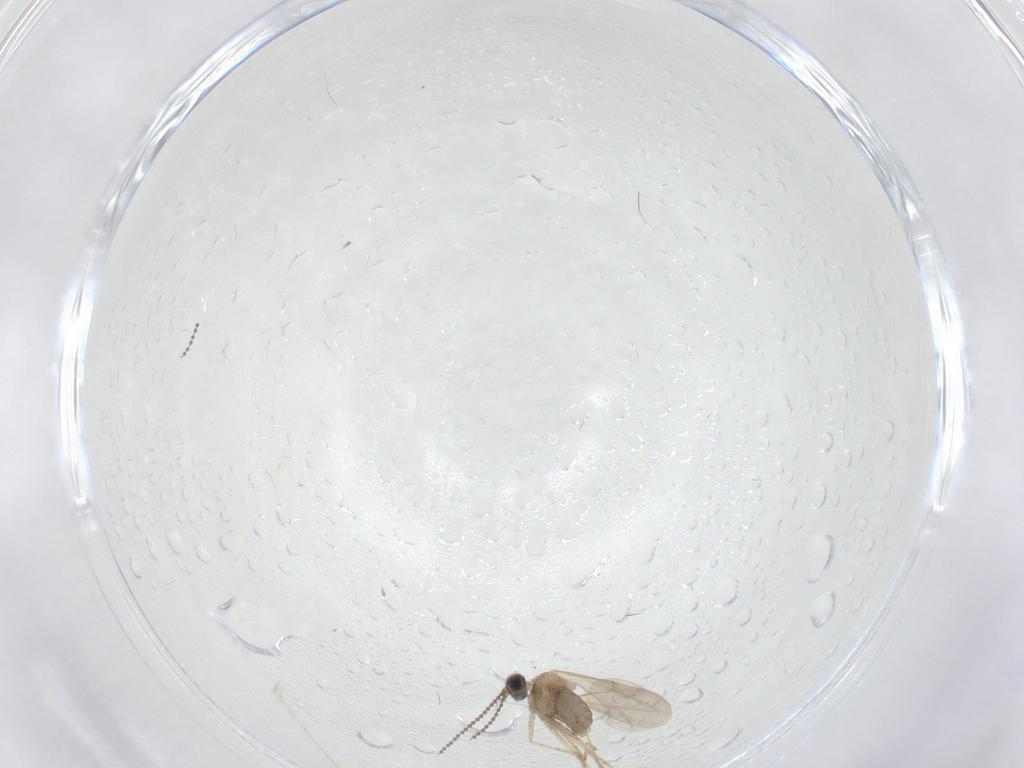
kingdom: Animalia
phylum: Arthropoda
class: Insecta
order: Diptera
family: Cecidomyiidae
